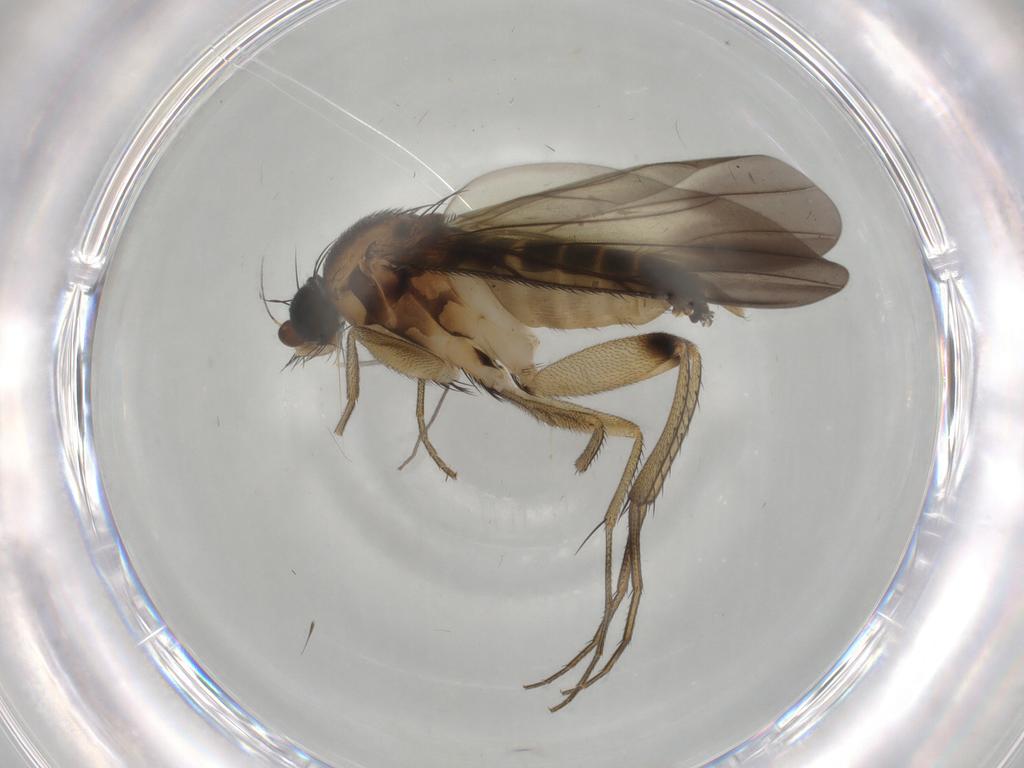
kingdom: Animalia
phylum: Arthropoda
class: Insecta
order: Diptera
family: Phoridae
